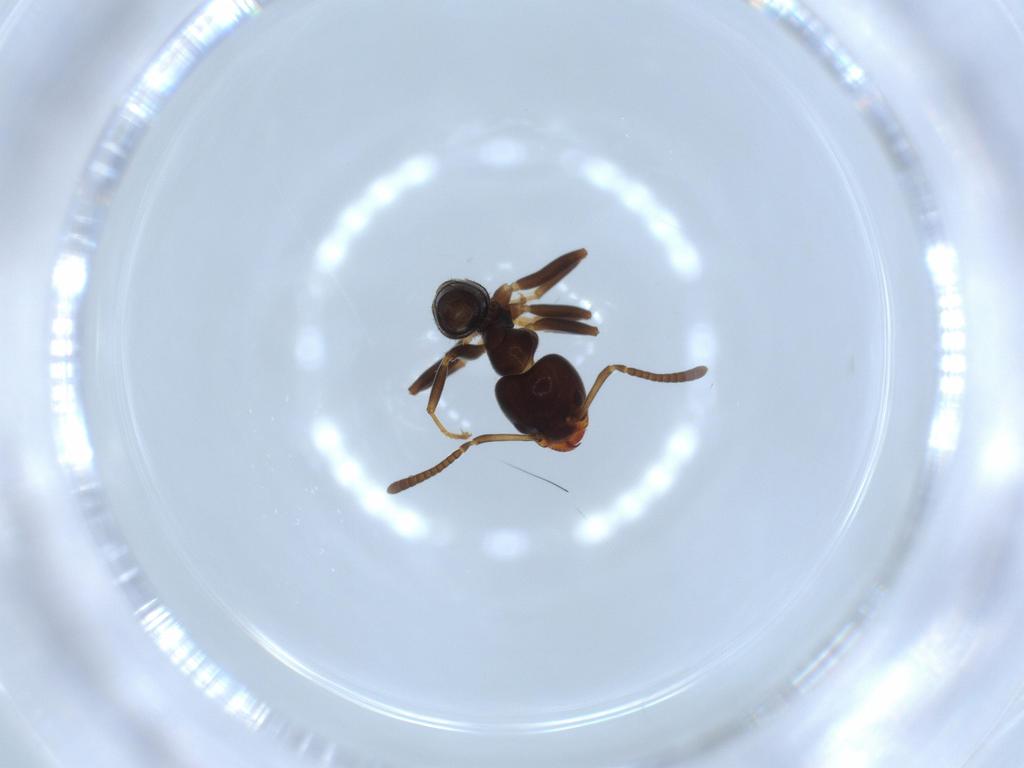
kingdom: Animalia
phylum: Arthropoda
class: Insecta
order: Hymenoptera
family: Formicidae
